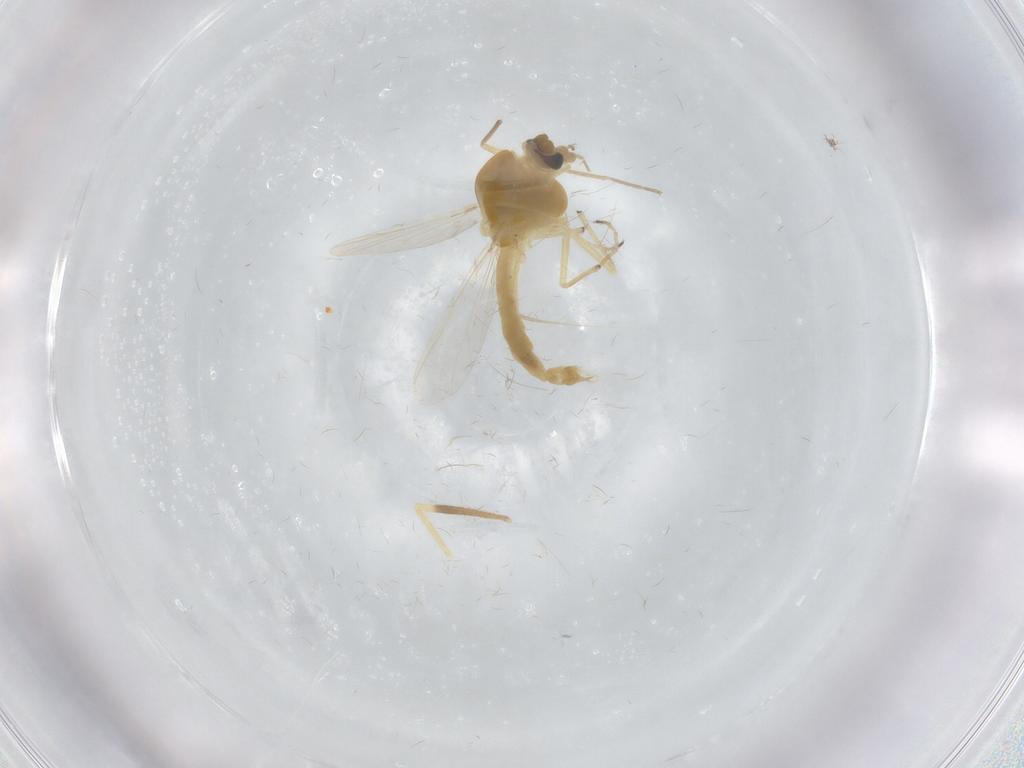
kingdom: Animalia
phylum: Arthropoda
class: Insecta
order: Diptera
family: Chironomidae
